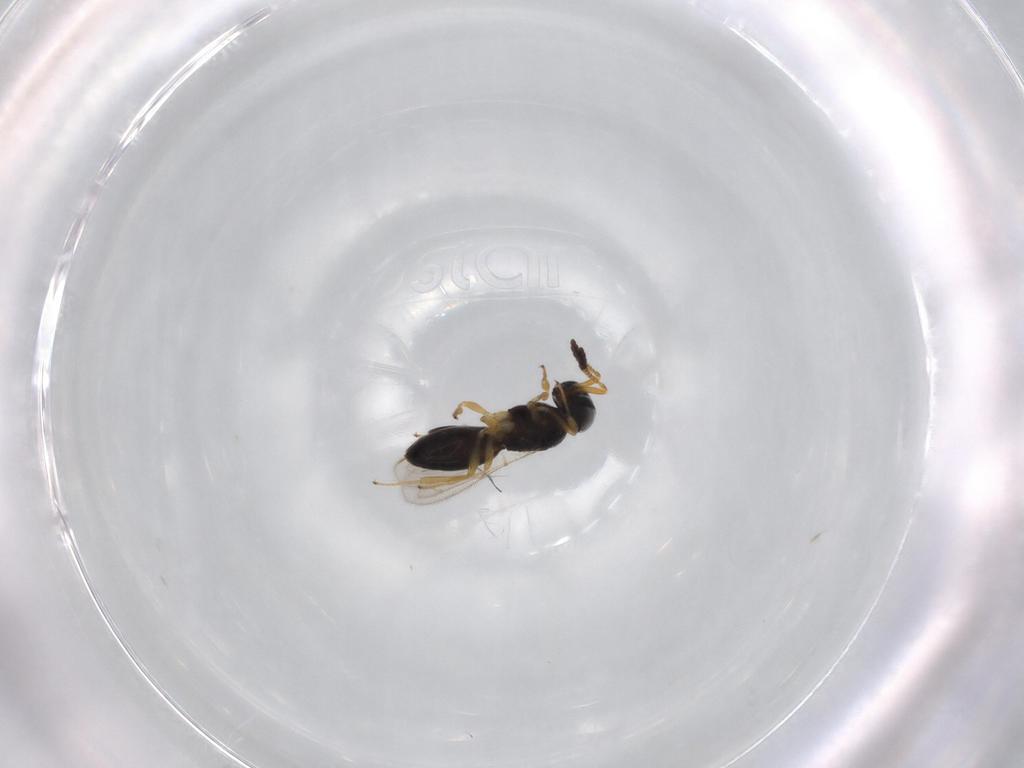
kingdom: Animalia
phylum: Arthropoda
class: Insecta
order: Hymenoptera
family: Scelionidae
